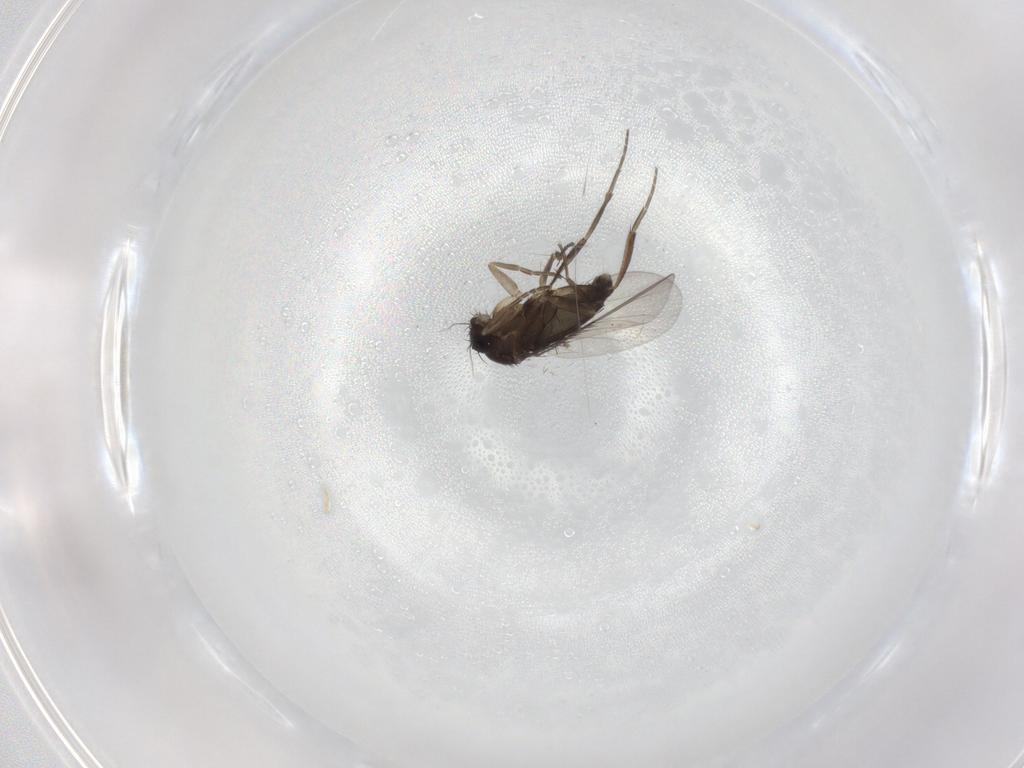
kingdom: Animalia
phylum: Arthropoda
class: Insecta
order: Diptera
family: Phoridae
